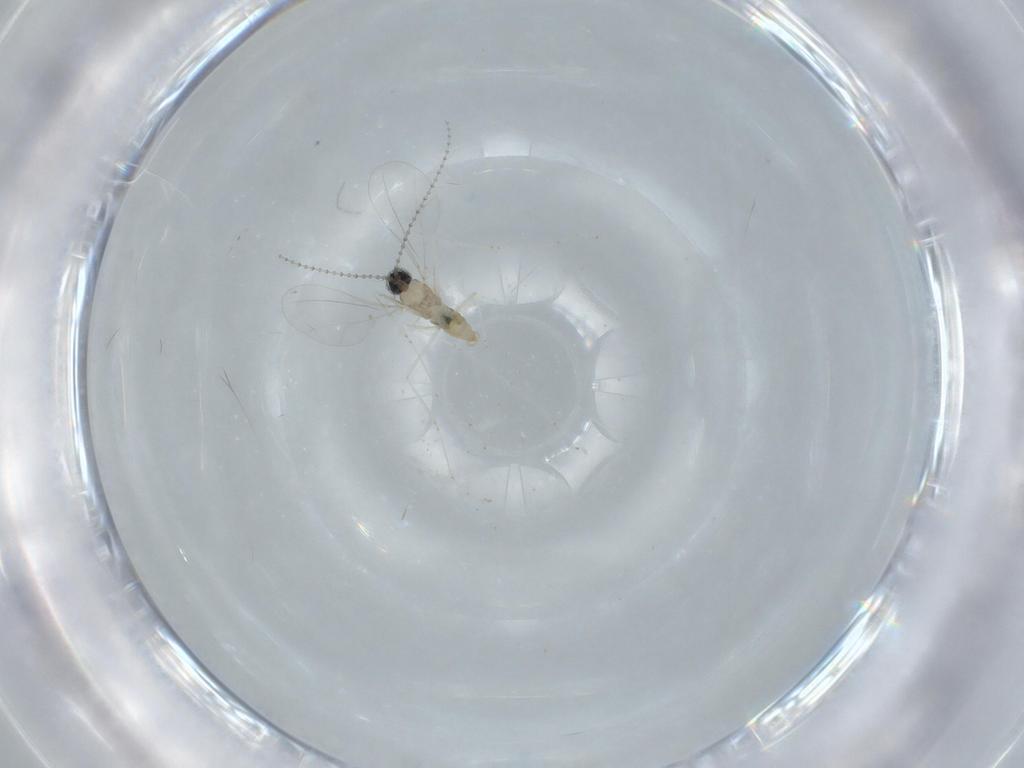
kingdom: Animalia
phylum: Arthropoda
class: Insecta
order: Diptera
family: Cecidomyiidae
